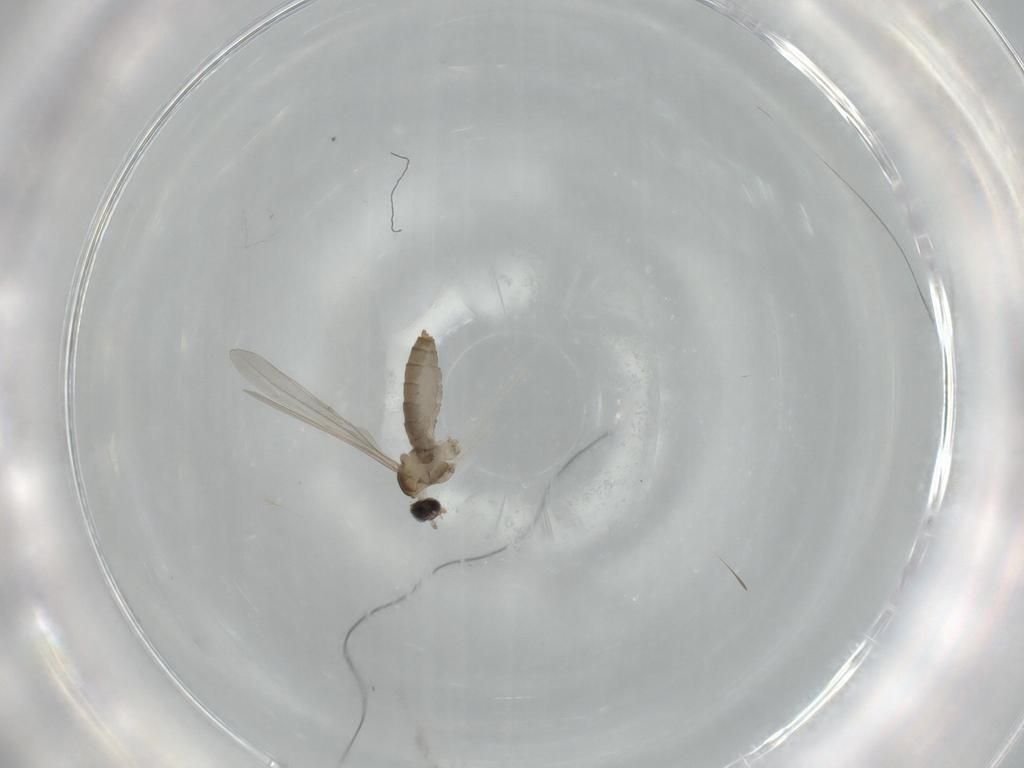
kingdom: Animalia
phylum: Arthropoda
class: Insecta
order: Diptera
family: Cecidomyiidae
